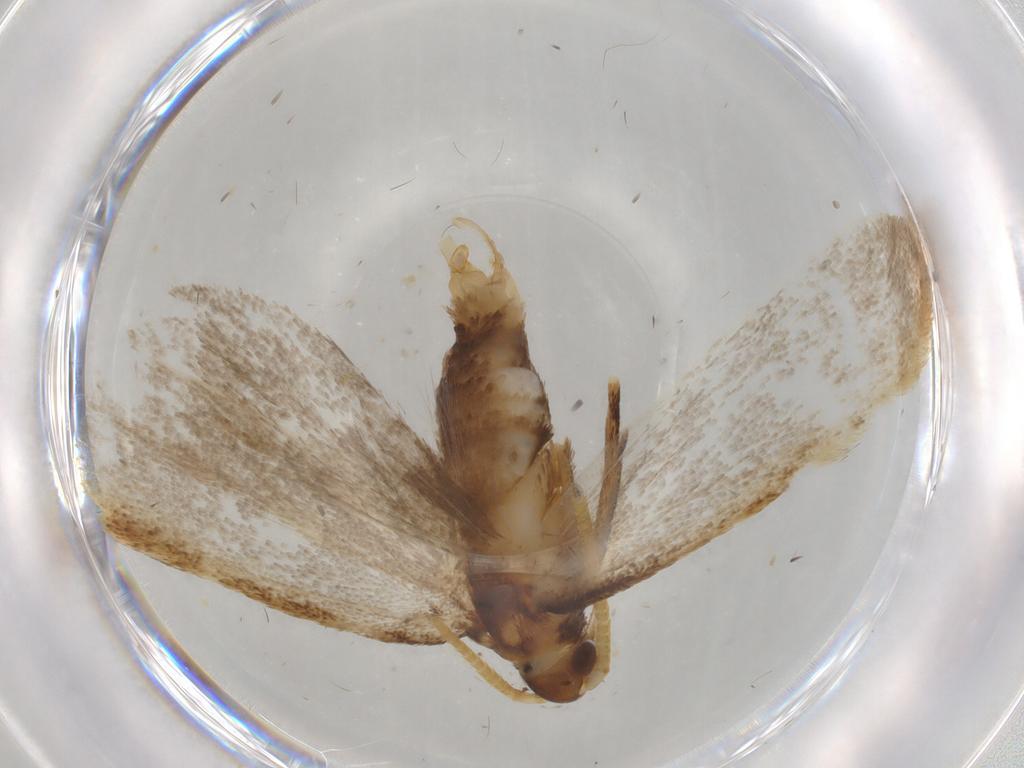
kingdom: Animalia
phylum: Arthropoda
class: Insecta
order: Lepidoptera
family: Lecithoceridae
